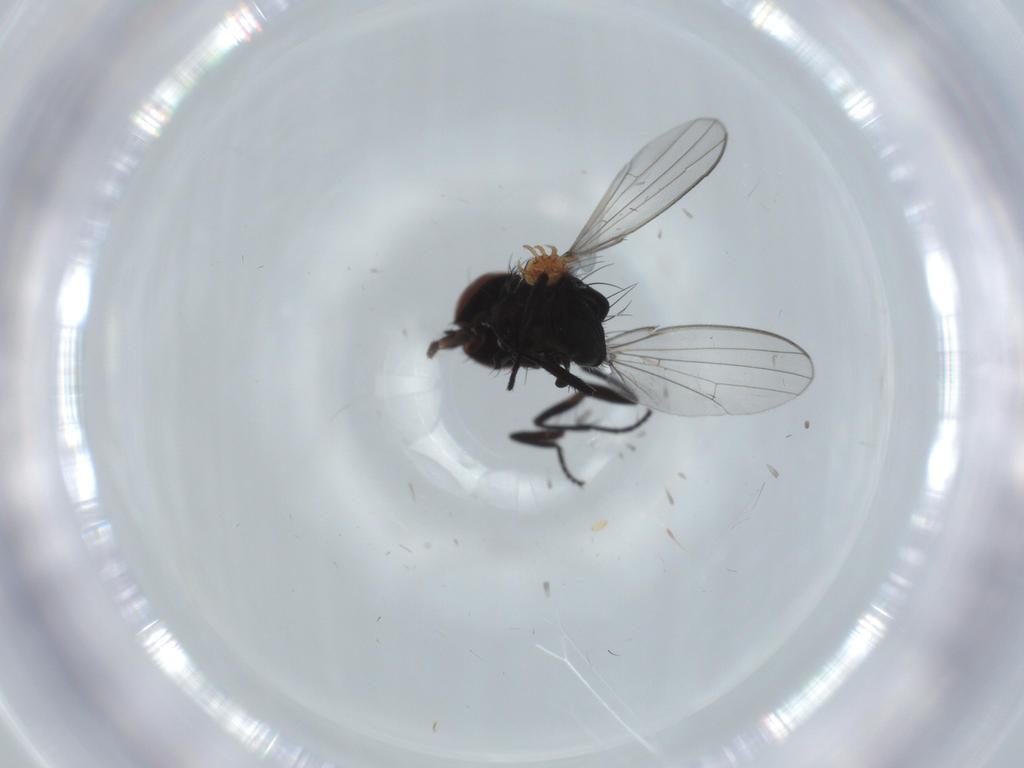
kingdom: Animalia
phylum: Arthropoda
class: Insecta
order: Diptera
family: Milichiidae
